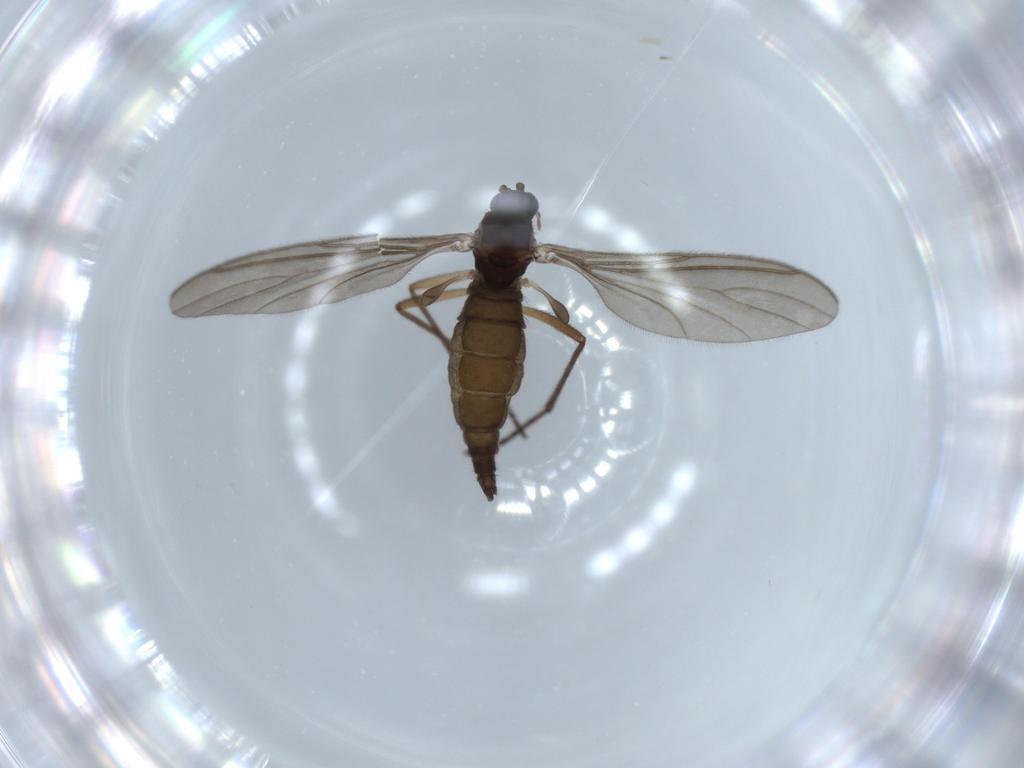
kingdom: Animalia
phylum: Arthropoda
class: Insecta
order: Diptera
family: Sciaridae
